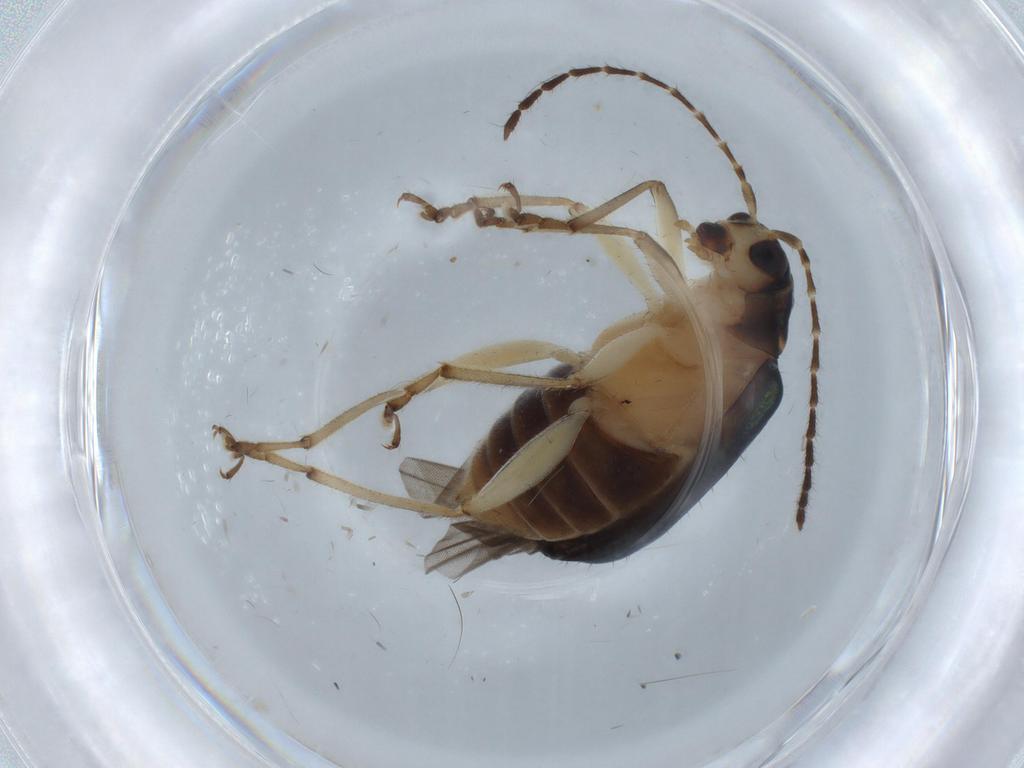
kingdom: Animalia
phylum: Arthropoda
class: Insecta
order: Coleoptera
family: Chrysomelidae
